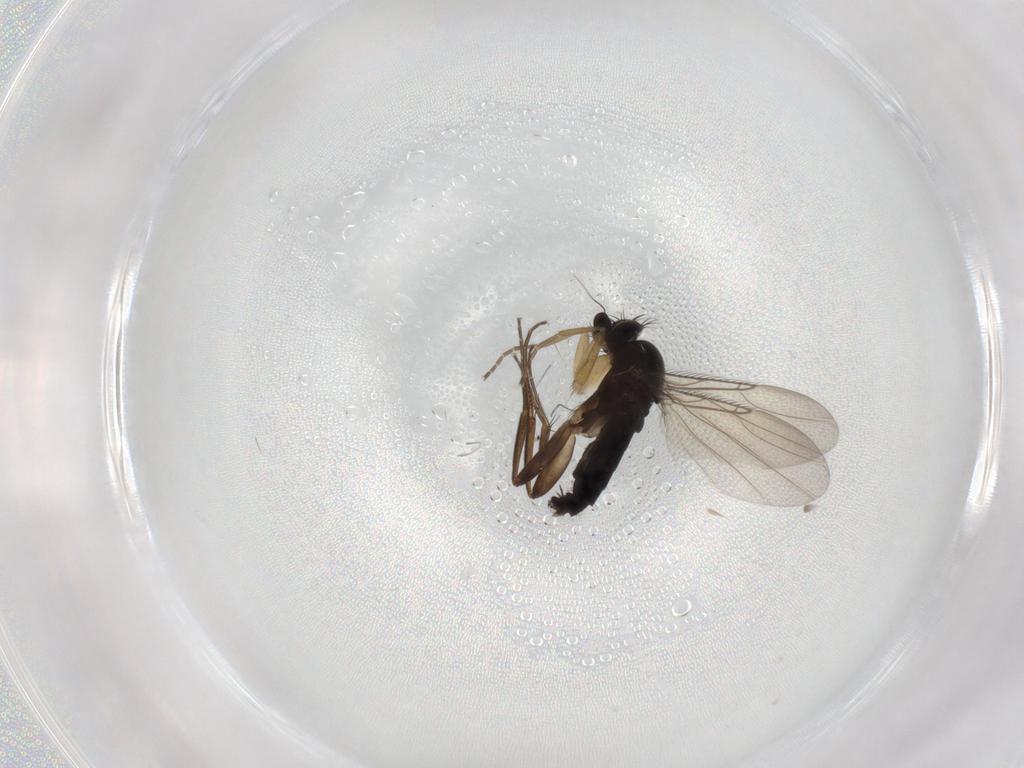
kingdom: Animalia
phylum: Arthropoda
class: Insecta
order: Diptera
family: Phoridae
